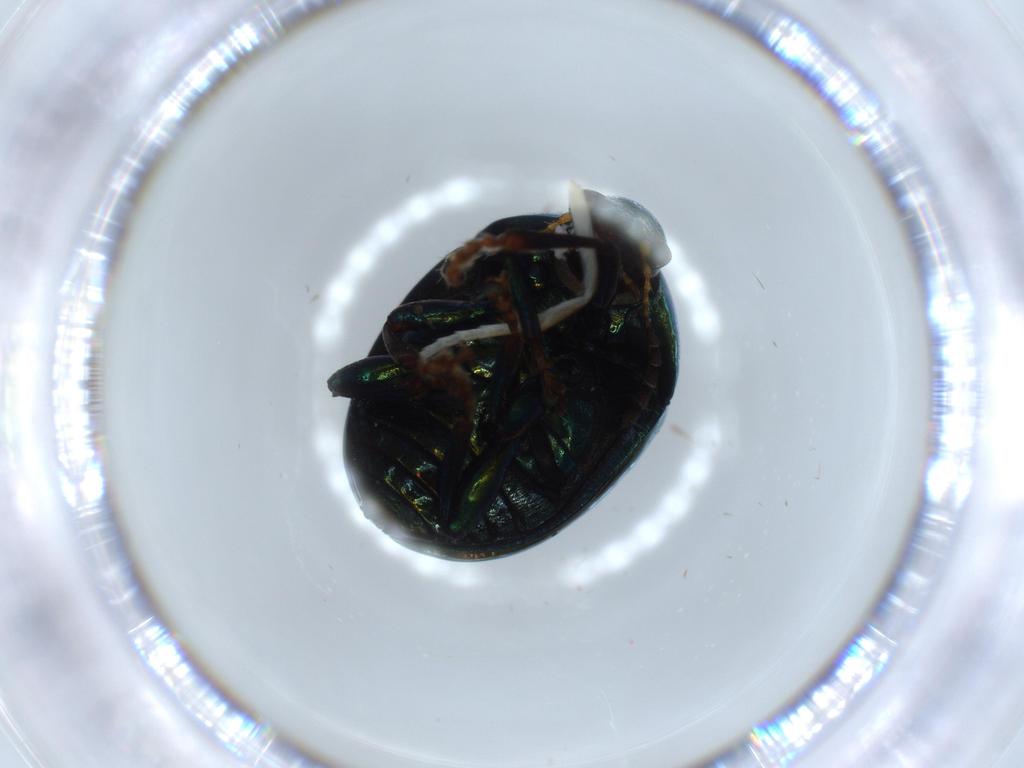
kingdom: Animalia
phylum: Arthropoda
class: Insecta
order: Coleoptera
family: Chrysomelidae
